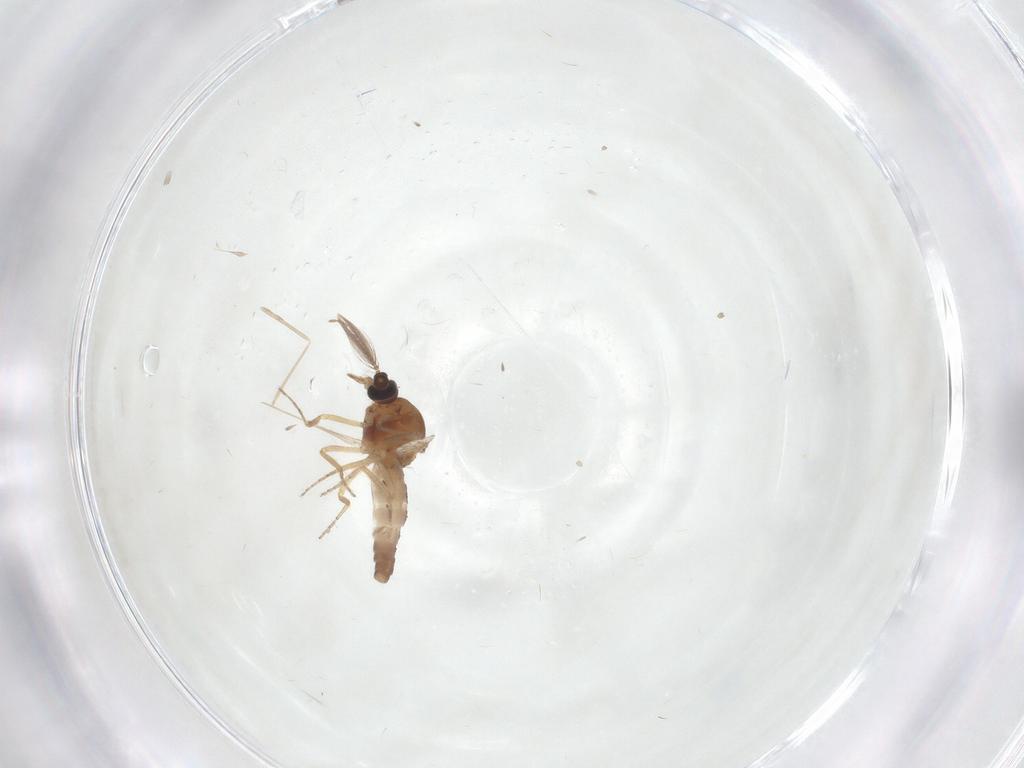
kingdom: Animalia
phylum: Arthropoda
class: Insecta
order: Diptera
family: Ceratopogonidae
